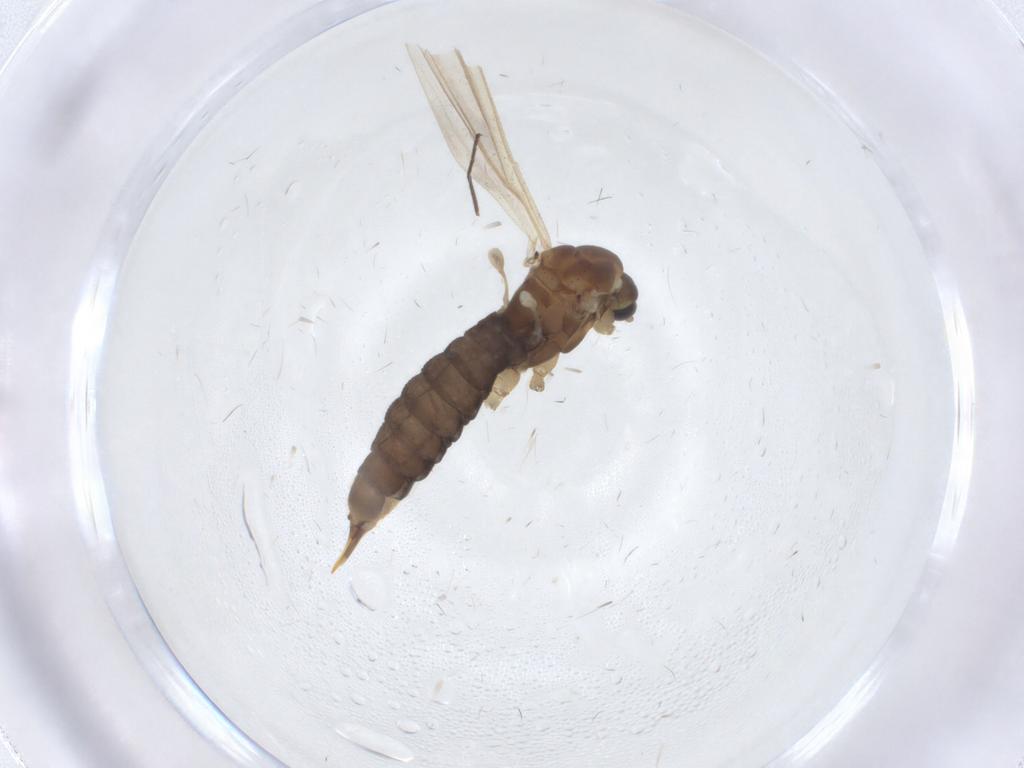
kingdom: Animalia
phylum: Arthropoda
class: Insecta
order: Diptera
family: Limoniidae
